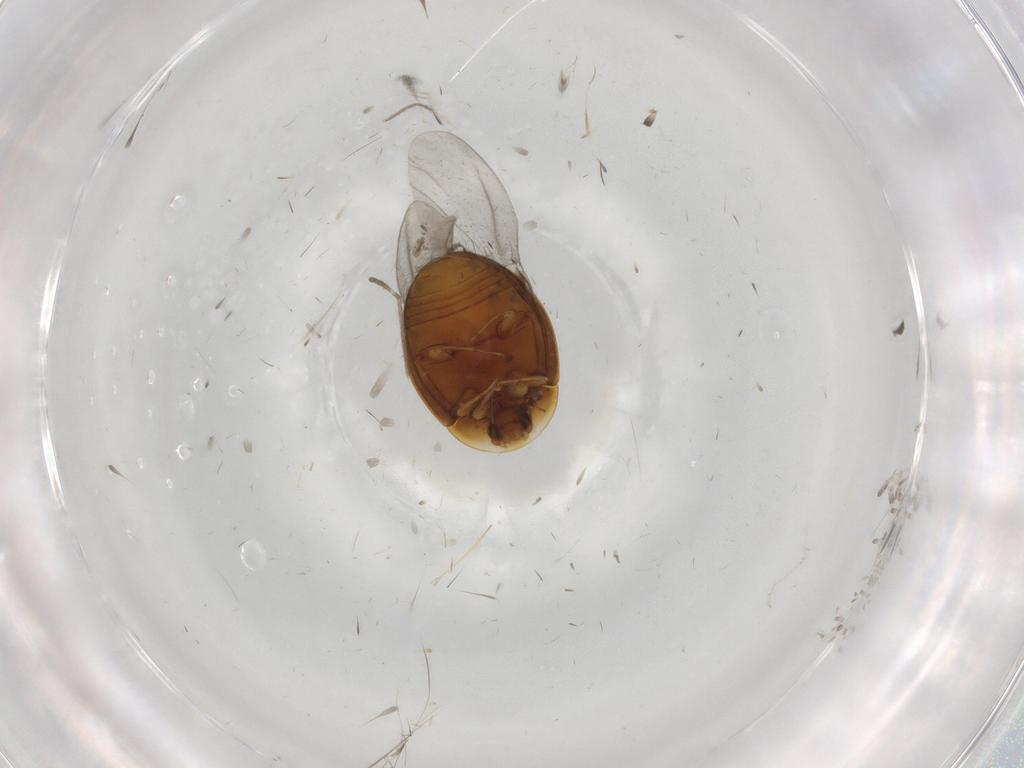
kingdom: Animalia
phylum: Arthropoda
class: Insecta
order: Coleoptera
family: Corylophidae
